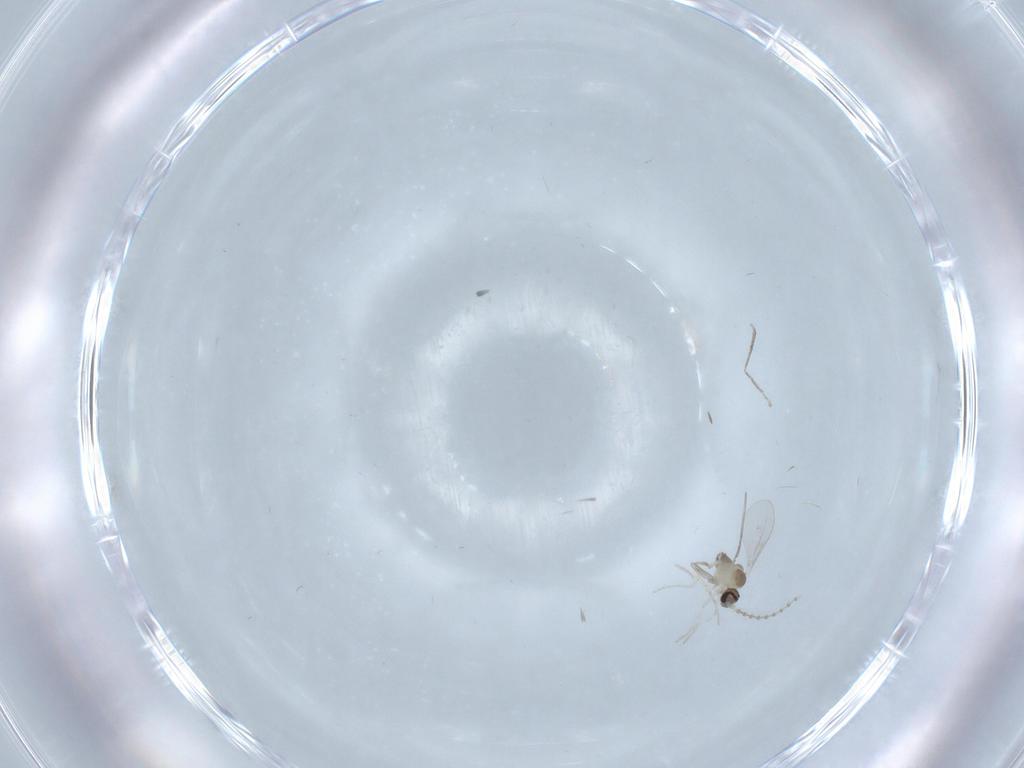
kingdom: Animalia
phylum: Arthropoda
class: Insecta
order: Diptera
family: Cecidomyiidae
